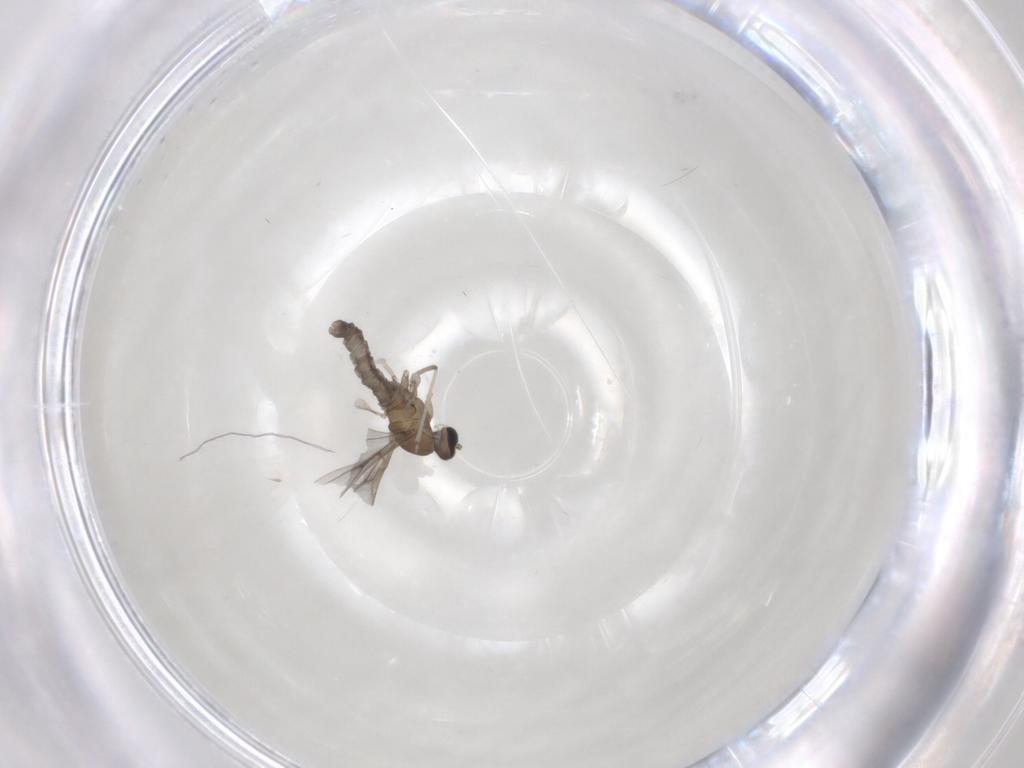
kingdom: Animalia
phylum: Arthropoda
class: Insecta
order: Diptera
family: Cecidomyiidae
